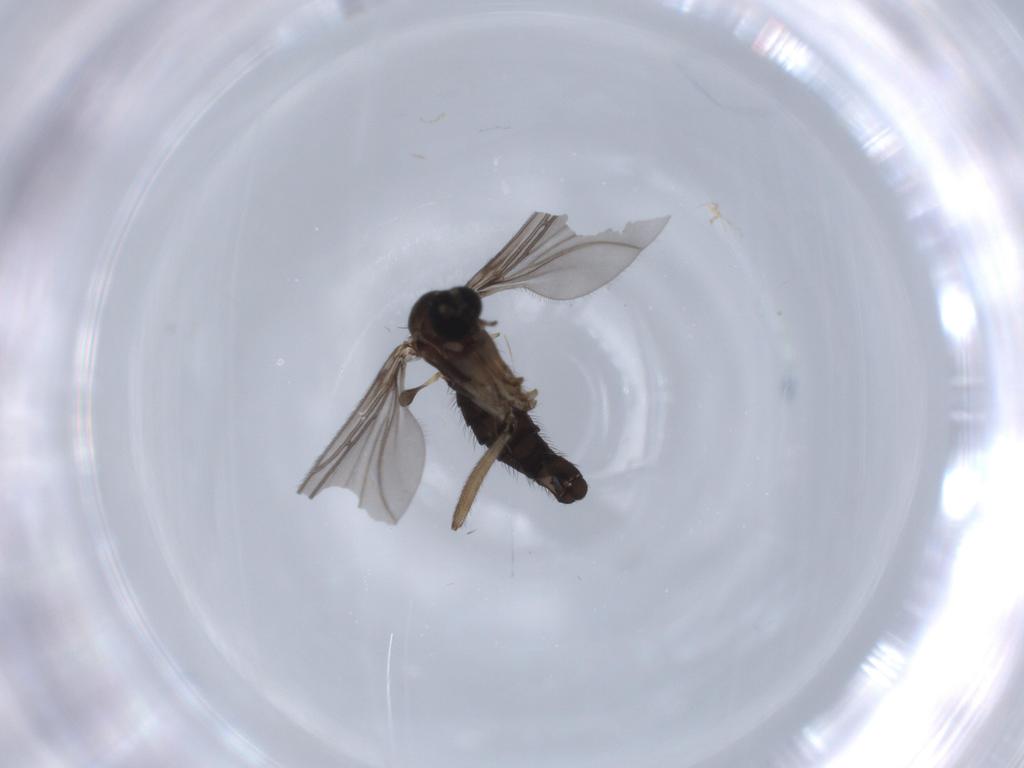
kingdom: Animalia
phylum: Arthropoda
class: Insecta
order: Diptera
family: Sciaridae
